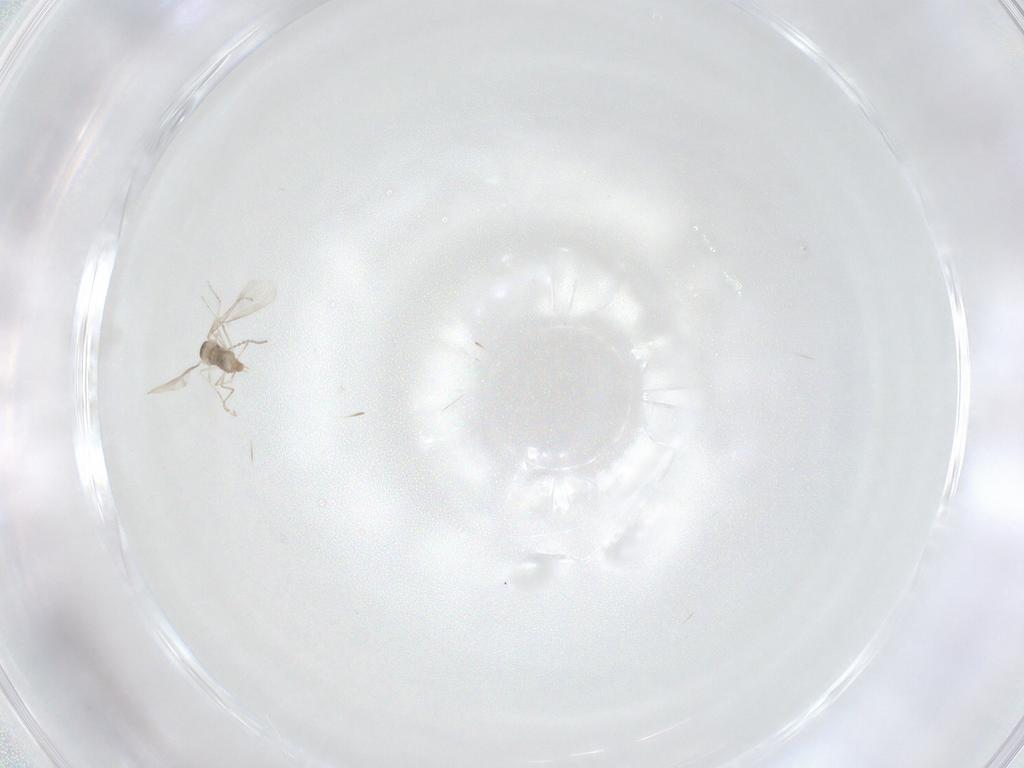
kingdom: Animalia
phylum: Arthropoda
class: Insecta
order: Diptera
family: Cecidomyiidae
